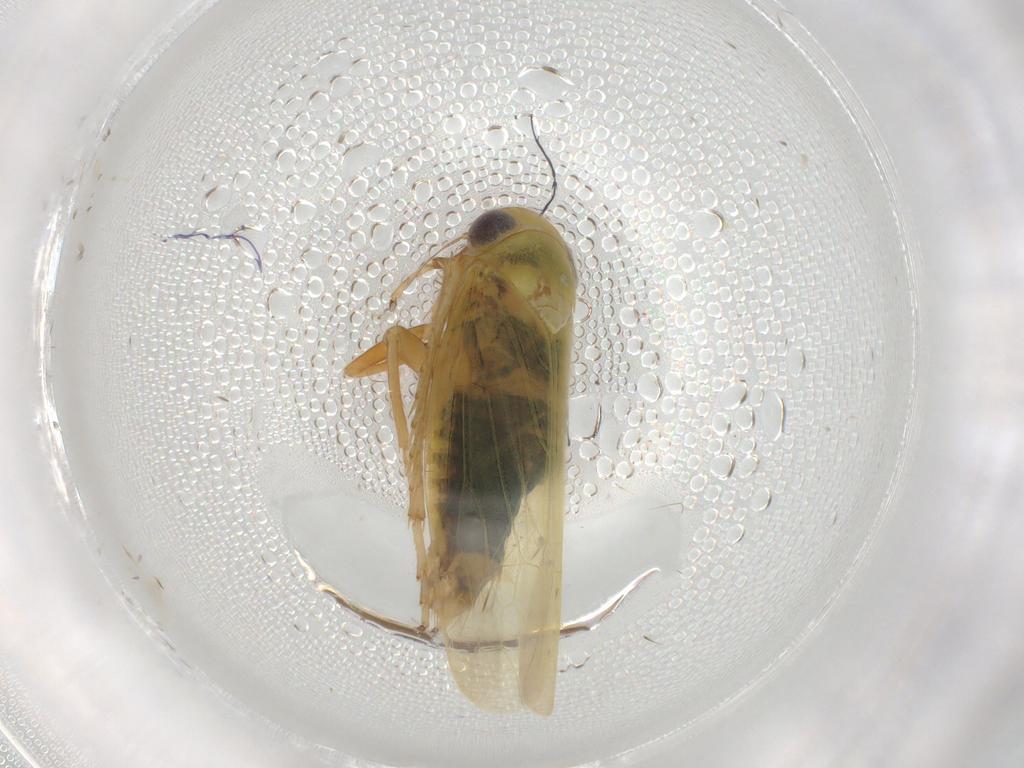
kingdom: Animalia
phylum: Arthropoda
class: Insecta
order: Hemiptera
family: Cicadellidae
